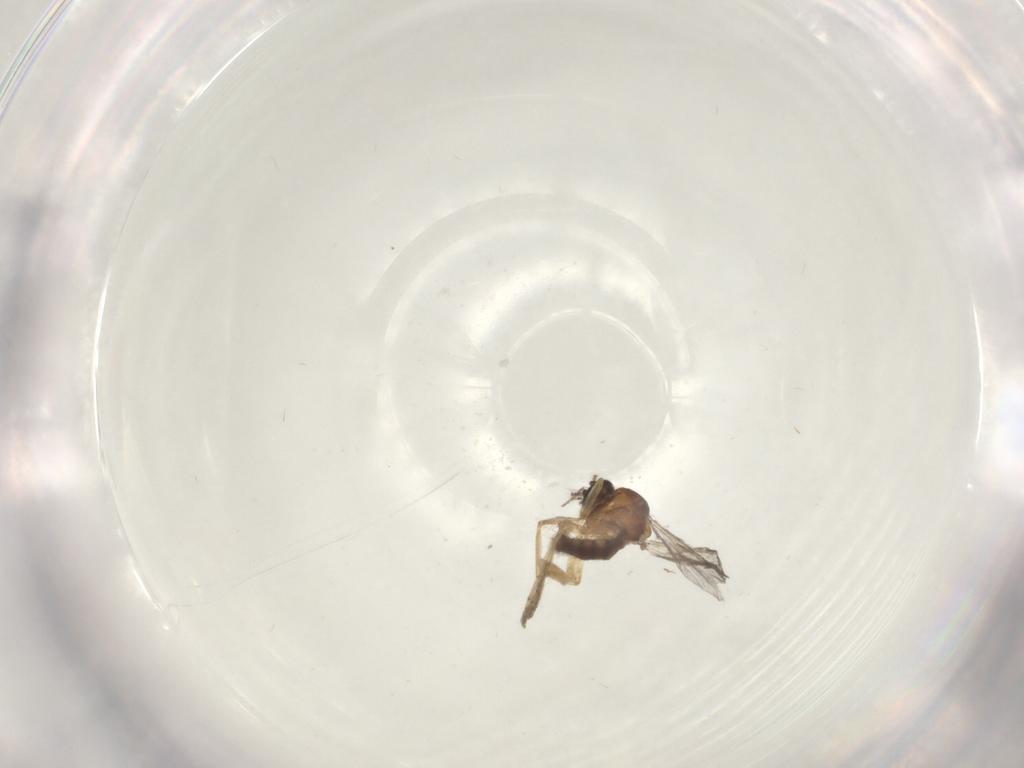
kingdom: Animalia
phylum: Arthropoda
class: Insecta
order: Diptera
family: Ceratopogonidae
